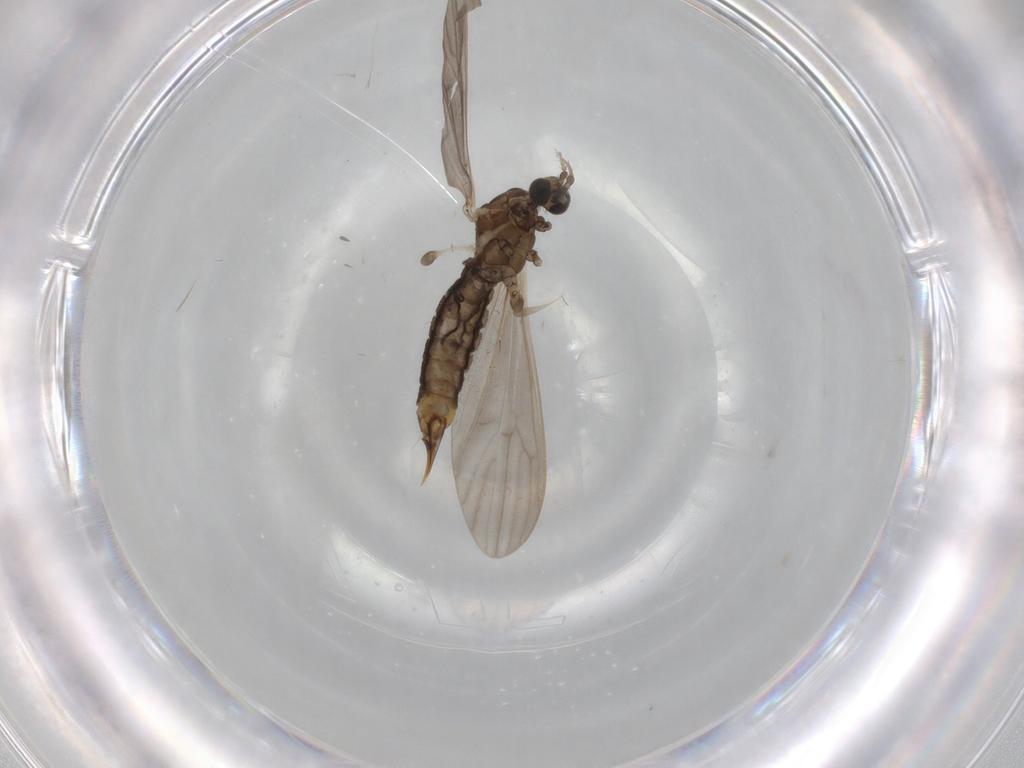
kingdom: Animalia
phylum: Arthropoda
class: Insecta
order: Diptera
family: Limoniidae
